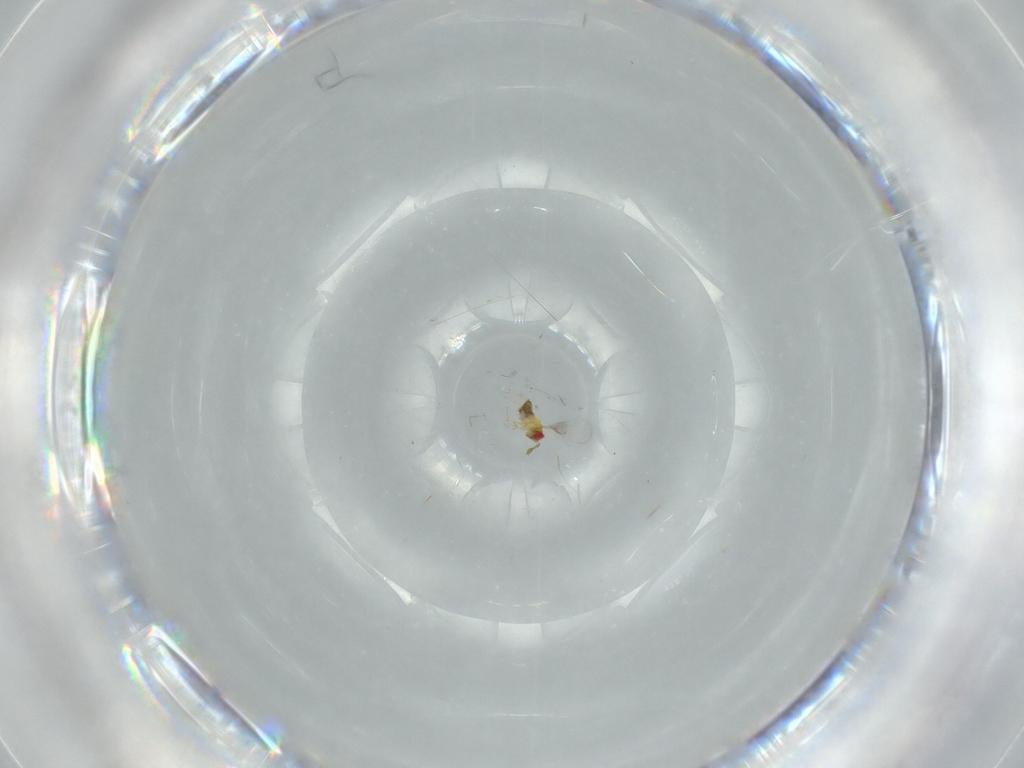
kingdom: Animalia
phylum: Arthropoda
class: Insecta
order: Hymenoptera
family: Trichogrammatidae
